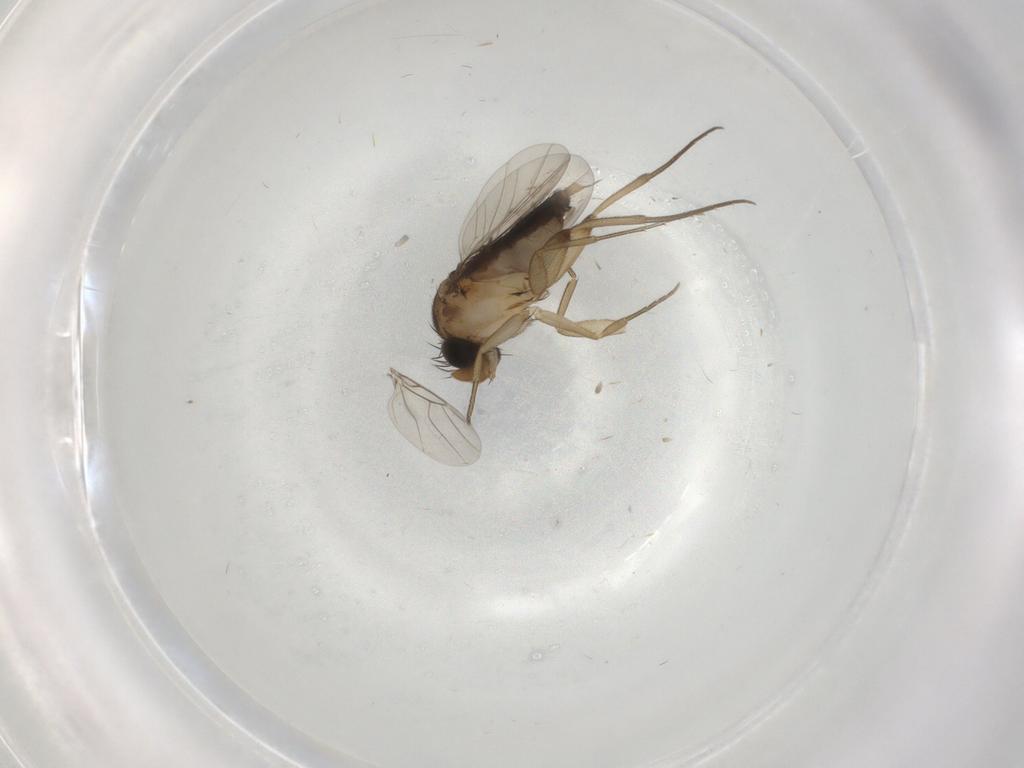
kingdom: Animalia
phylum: Arthropoda
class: Insecta
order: Diptera
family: Phoridae
